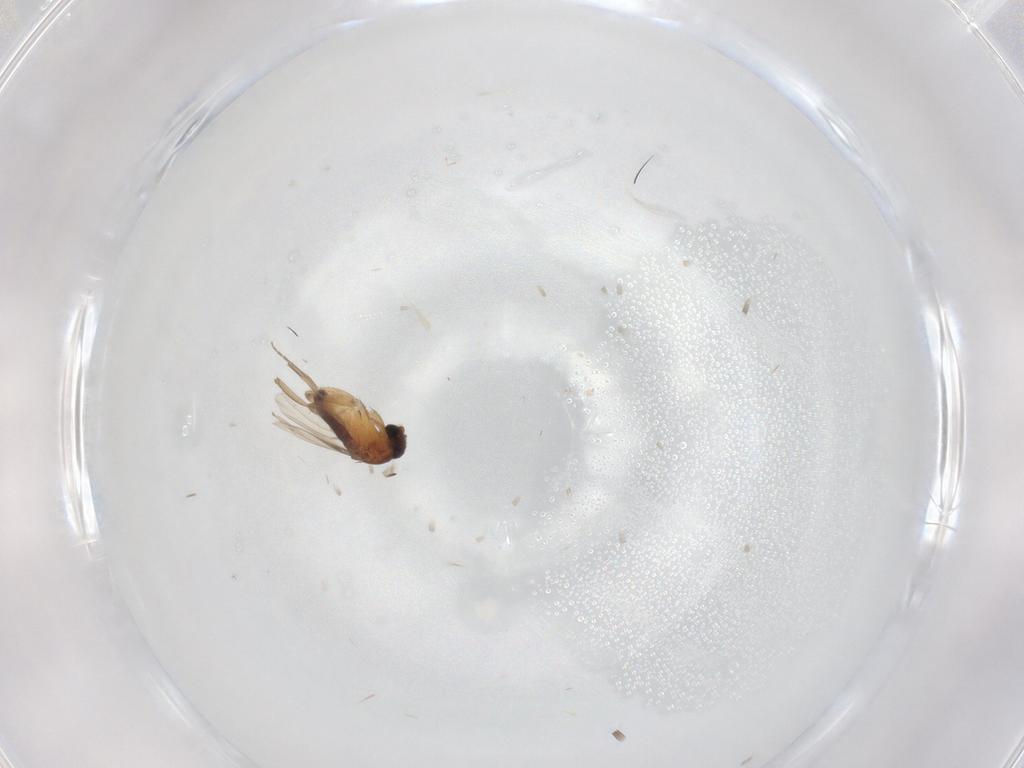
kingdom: Animalia
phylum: Arthropoda
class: Insecta
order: Diptera
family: Phoridae
